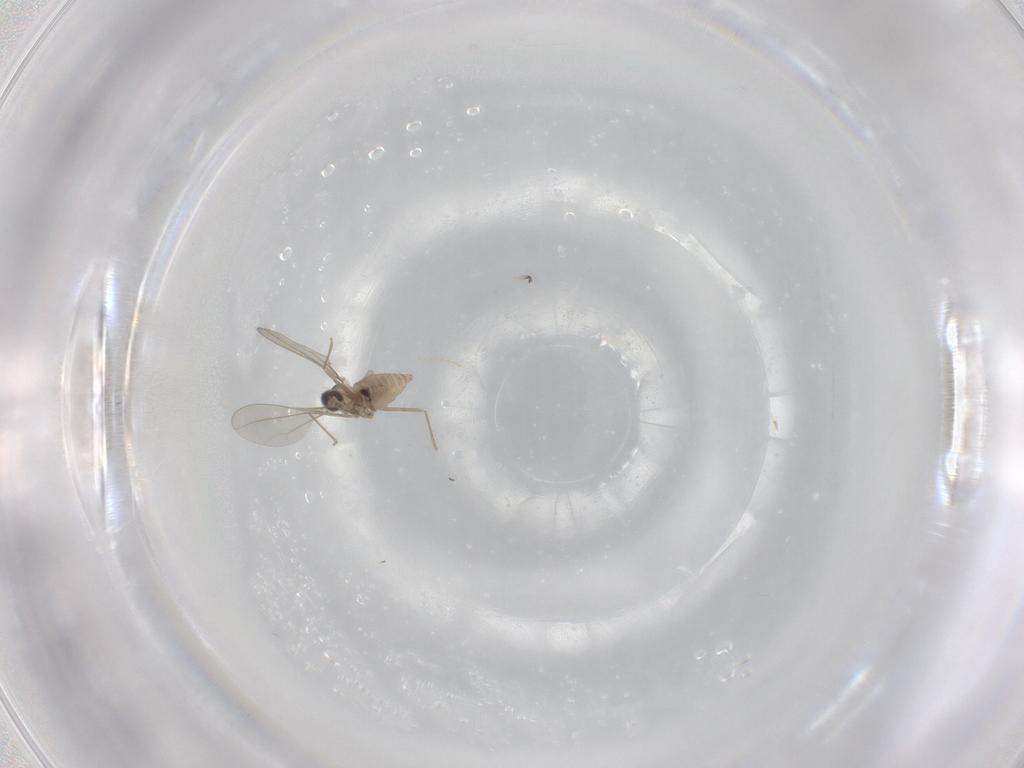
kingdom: Animalia
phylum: Arthropoda
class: Insecta
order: Diptera
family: Cecidomyiidae
